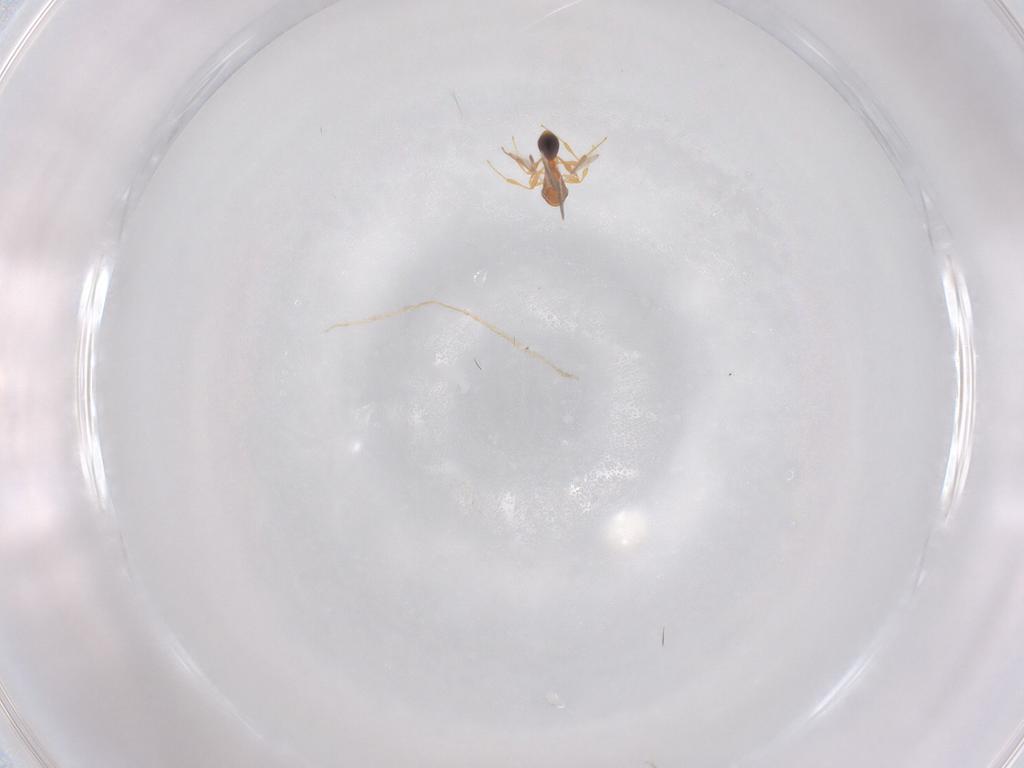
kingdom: Animalia
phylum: Arthropoda
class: Insecta
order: Hymenoptera
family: Platygastridae
